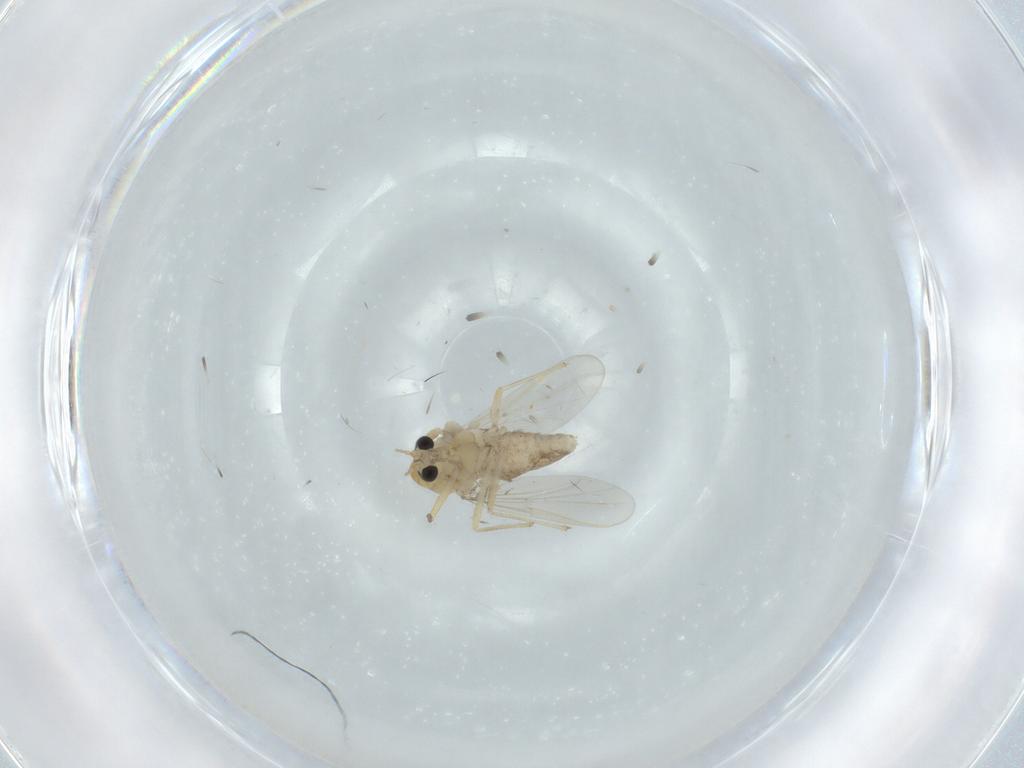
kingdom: Animalia
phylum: Arthropoda
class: Insecta
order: Diptera
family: Chironomidae
